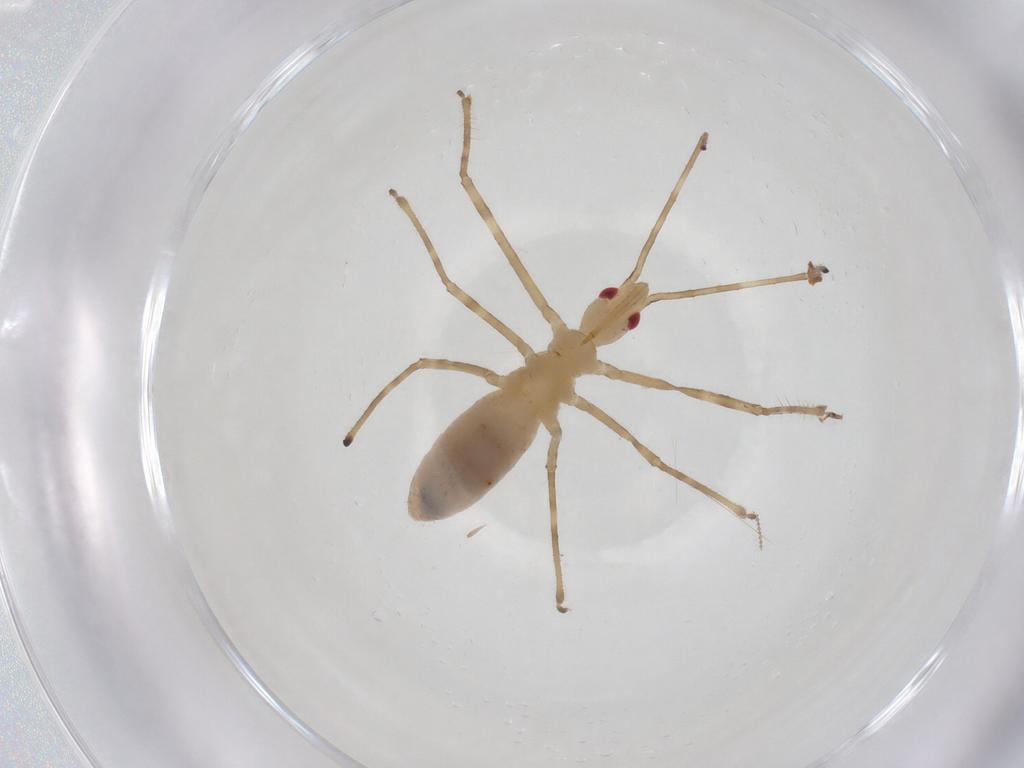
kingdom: Animalia
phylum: Arthropoda
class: Insecta
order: Hemiptera
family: Reduviidae
